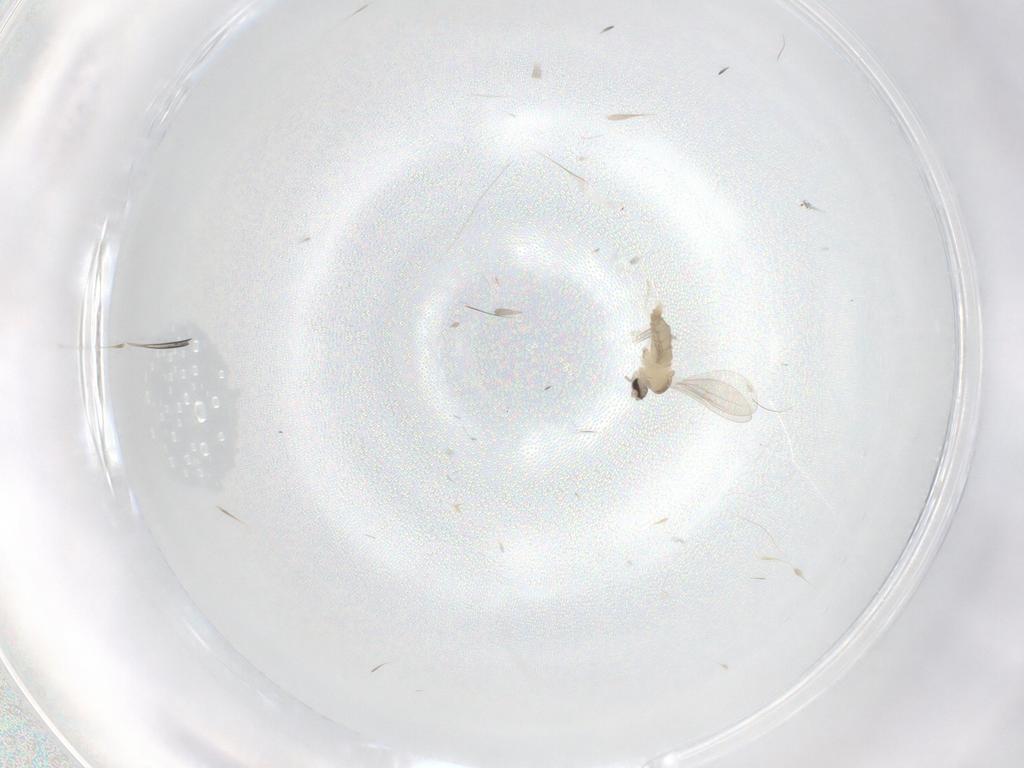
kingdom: Animalia
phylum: Arthropoda
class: Insecta
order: Diptera
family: Cecidomyiidae
